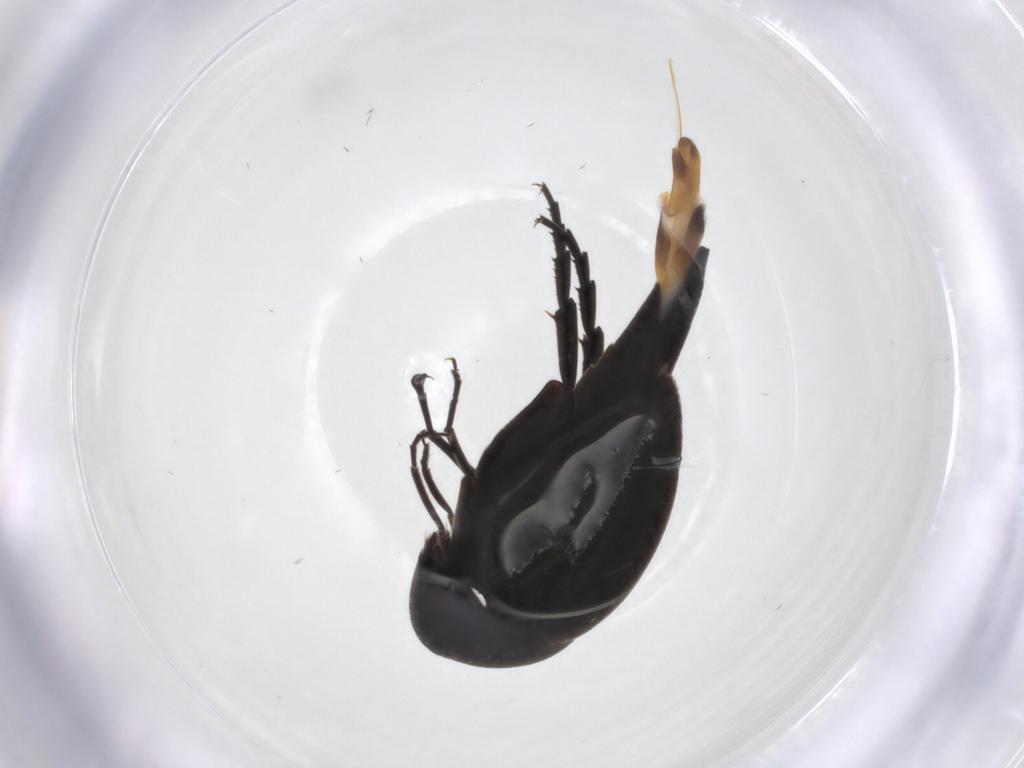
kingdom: Animalia
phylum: Arthropoda
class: Insecta
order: Coleoptera
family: Mordellidae
